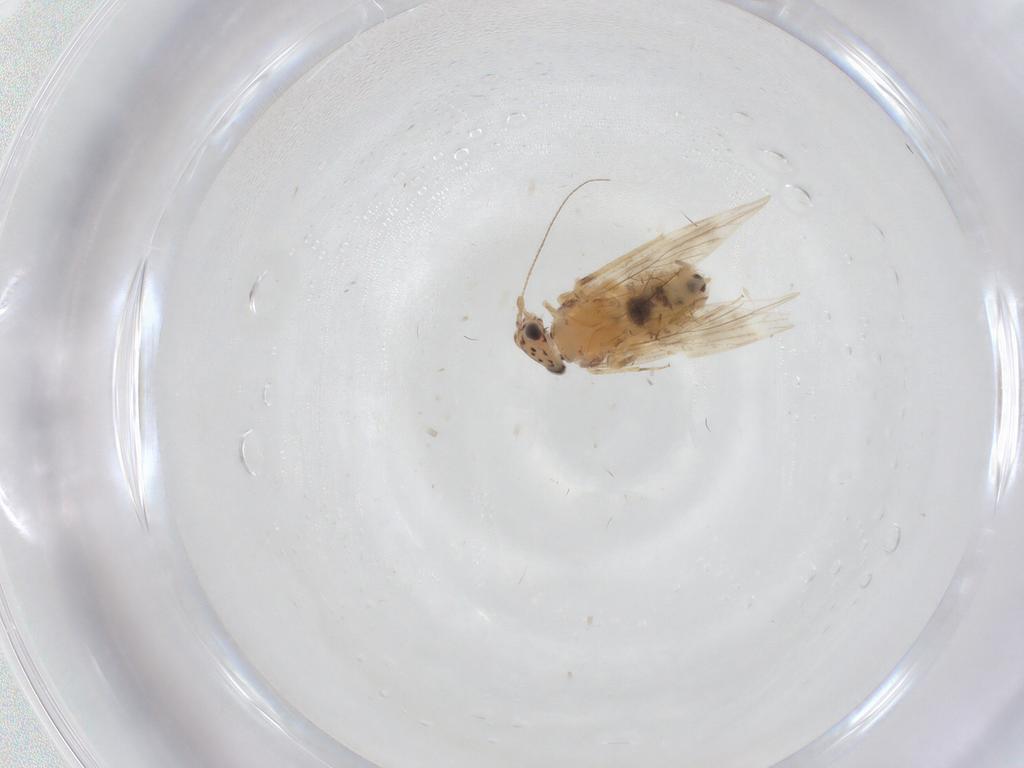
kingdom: Animalia
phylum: Arthropoda
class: Insecta
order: Psocodea
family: Lepidopsocidae
